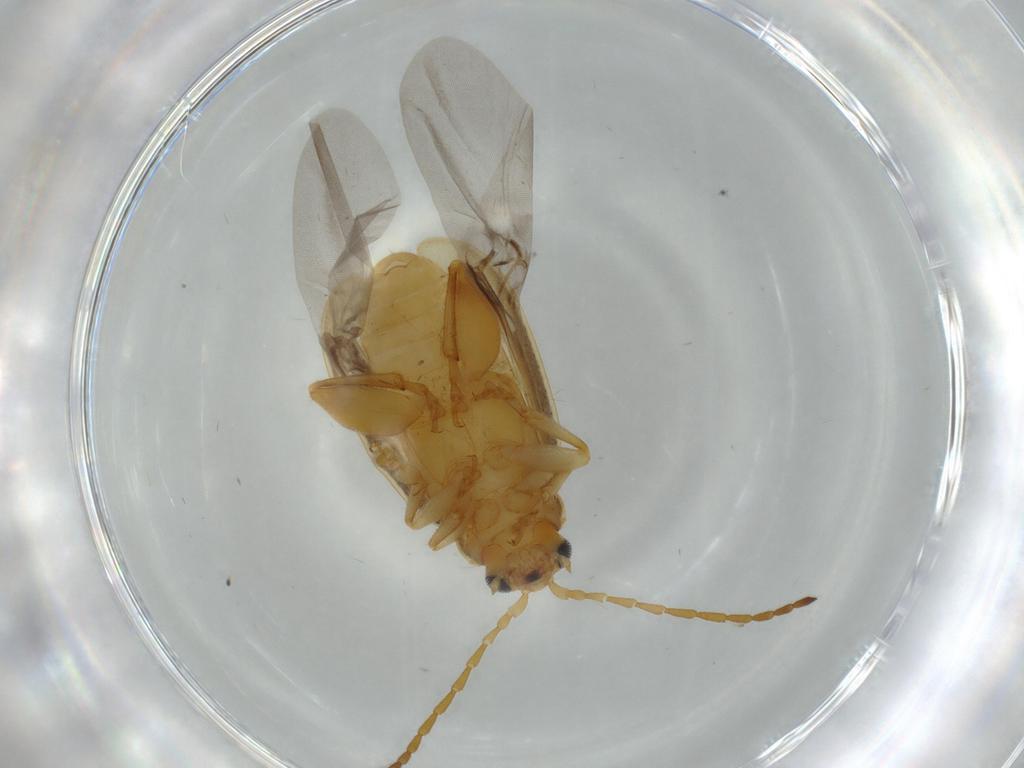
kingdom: Animalia
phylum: Arthropoda
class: Insecta
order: Coleoptera
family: Chrysomelidae
